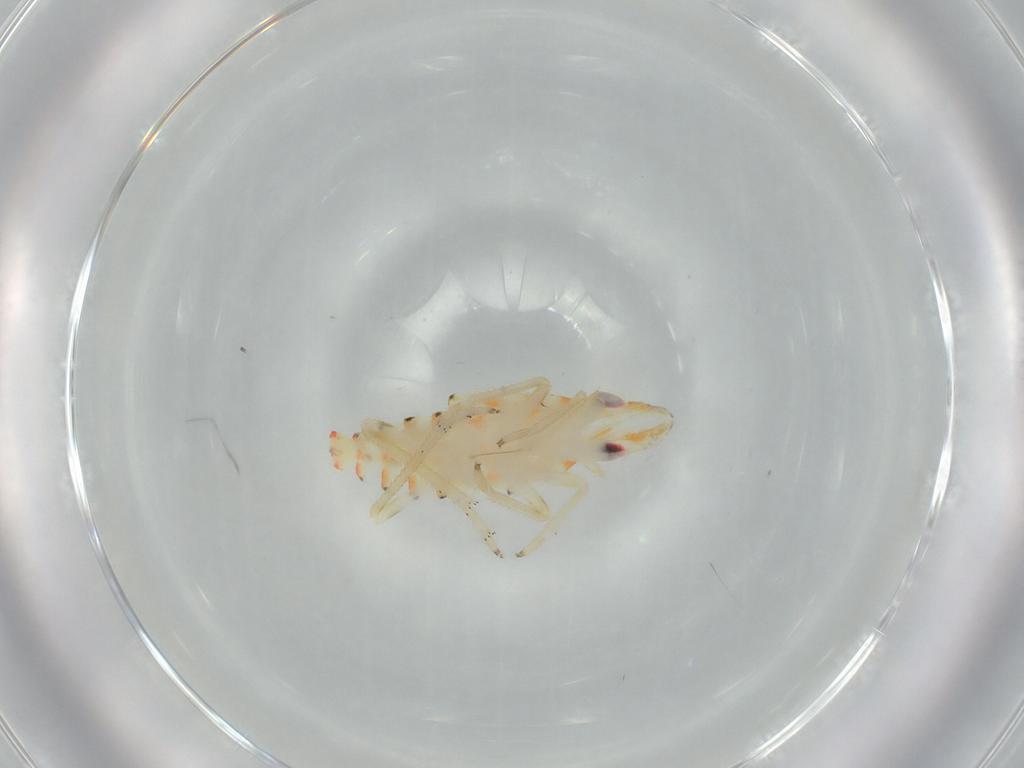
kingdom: Animalia
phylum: Arthropoda
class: Insecta
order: Hemiptera
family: Tropiduchidae
